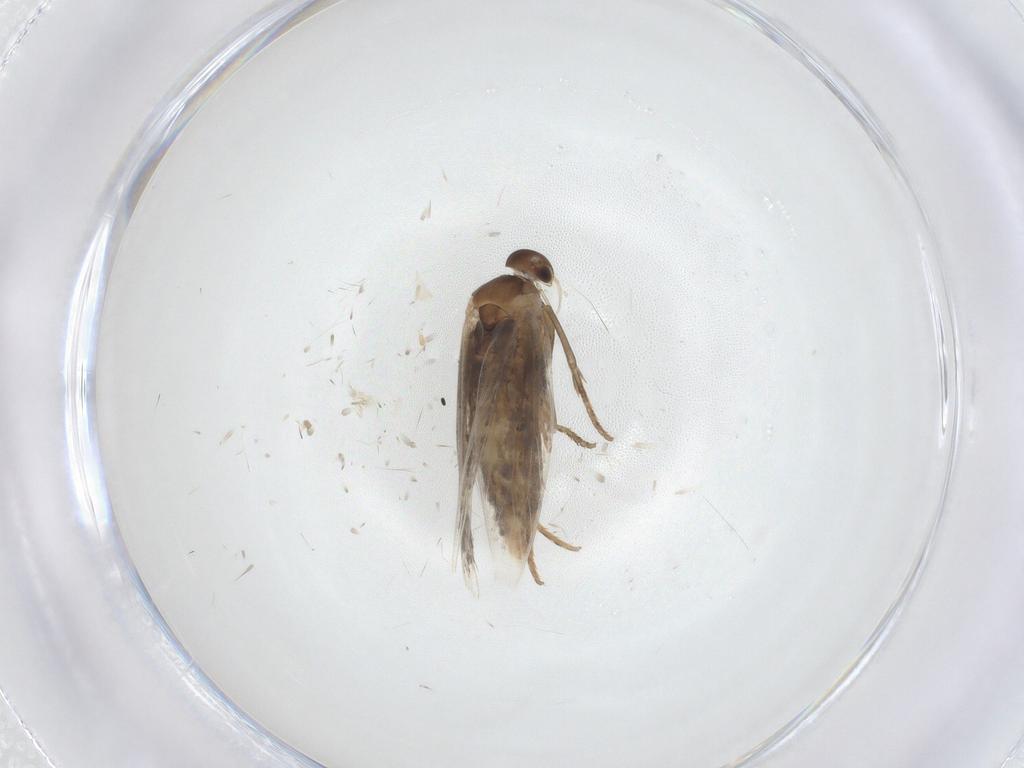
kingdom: Animalia
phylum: Arthropoda
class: Insecta
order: Lepidoptera
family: Elachistidae
